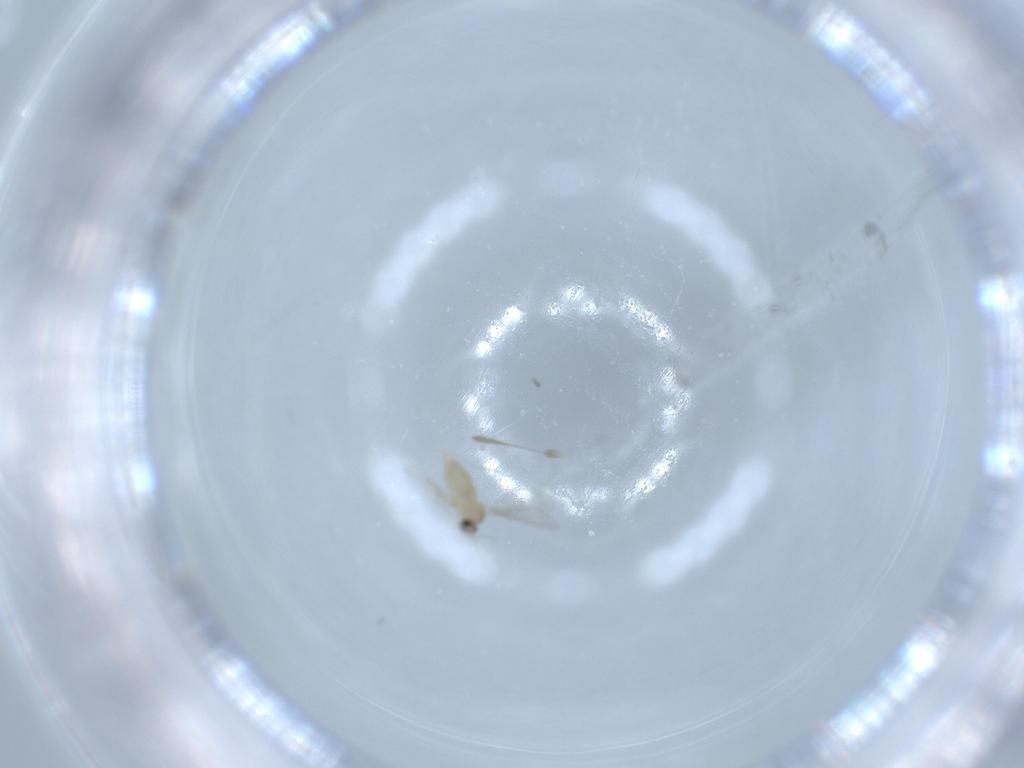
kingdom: Animalia
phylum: Arthropoda
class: Insecta
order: Diptera
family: Cecidomyiidae
